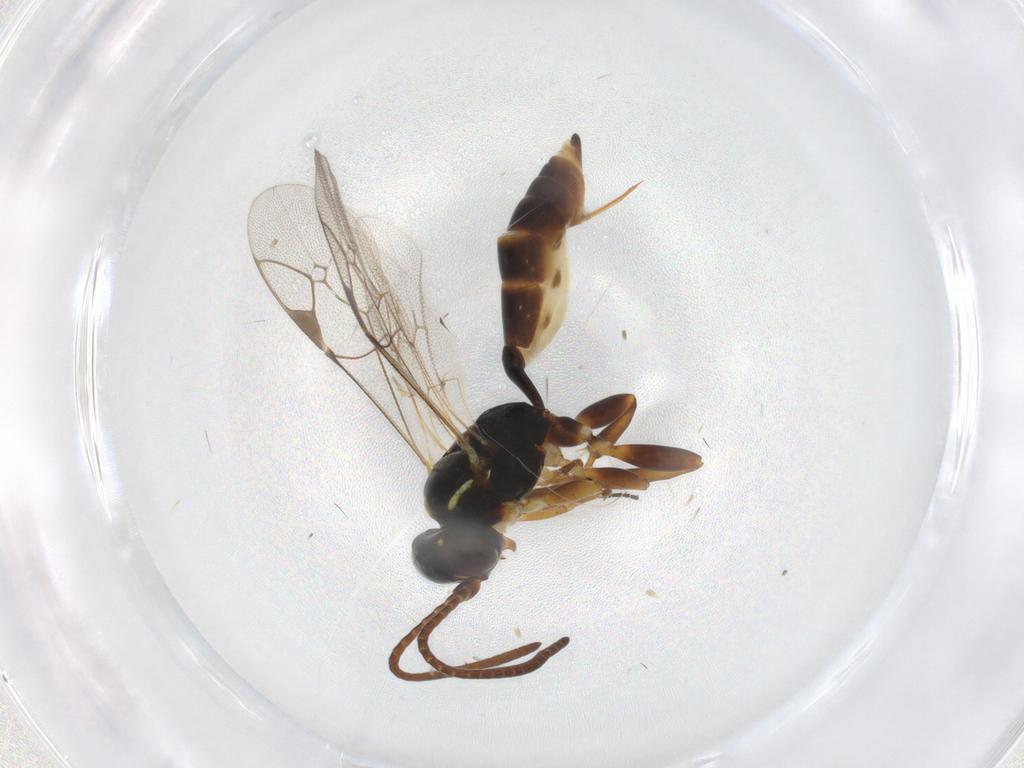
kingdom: Animalia
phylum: Arthropoda
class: Insecta
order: Hymenoptera
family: Ichneumonidae
